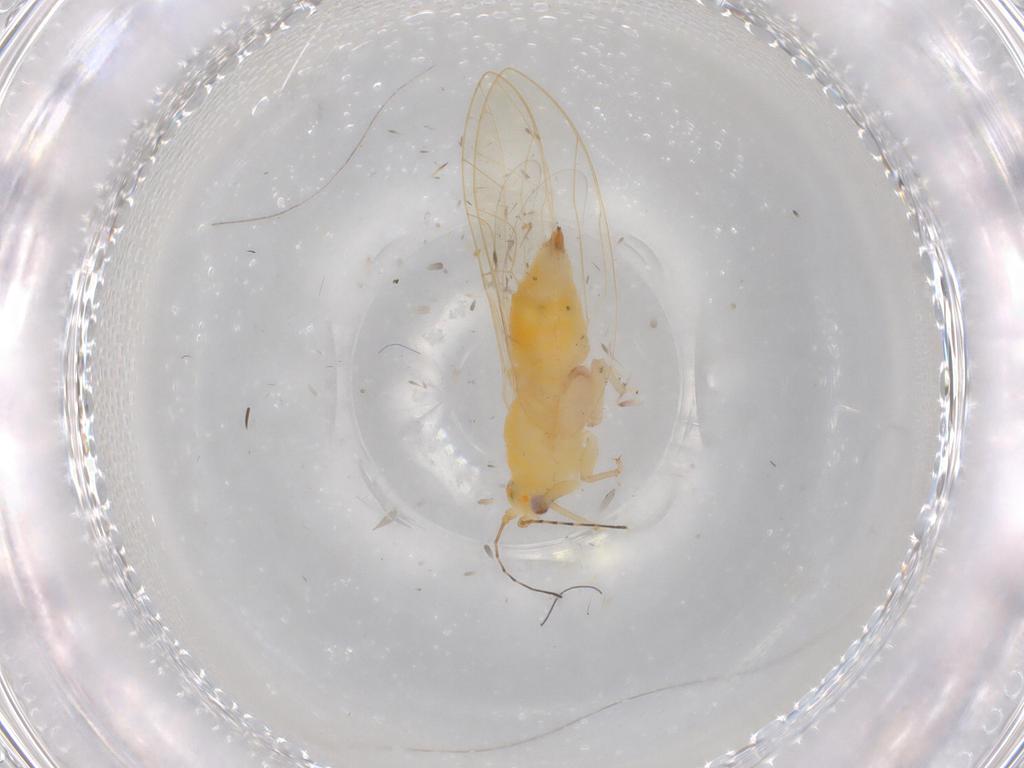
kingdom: Animalia
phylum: Arthropoda
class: Insecta
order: Hemiptera
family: Carsidaridae
